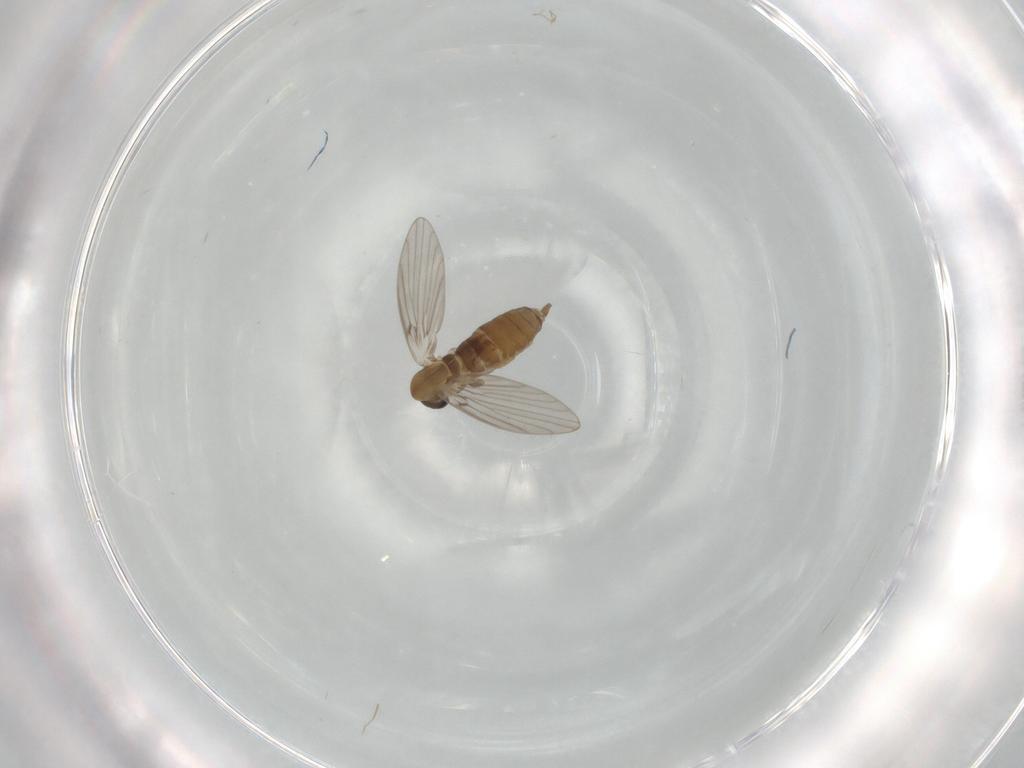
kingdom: Animalia
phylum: Arthropoda
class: Insecta
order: Diptera
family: Psychodidae
